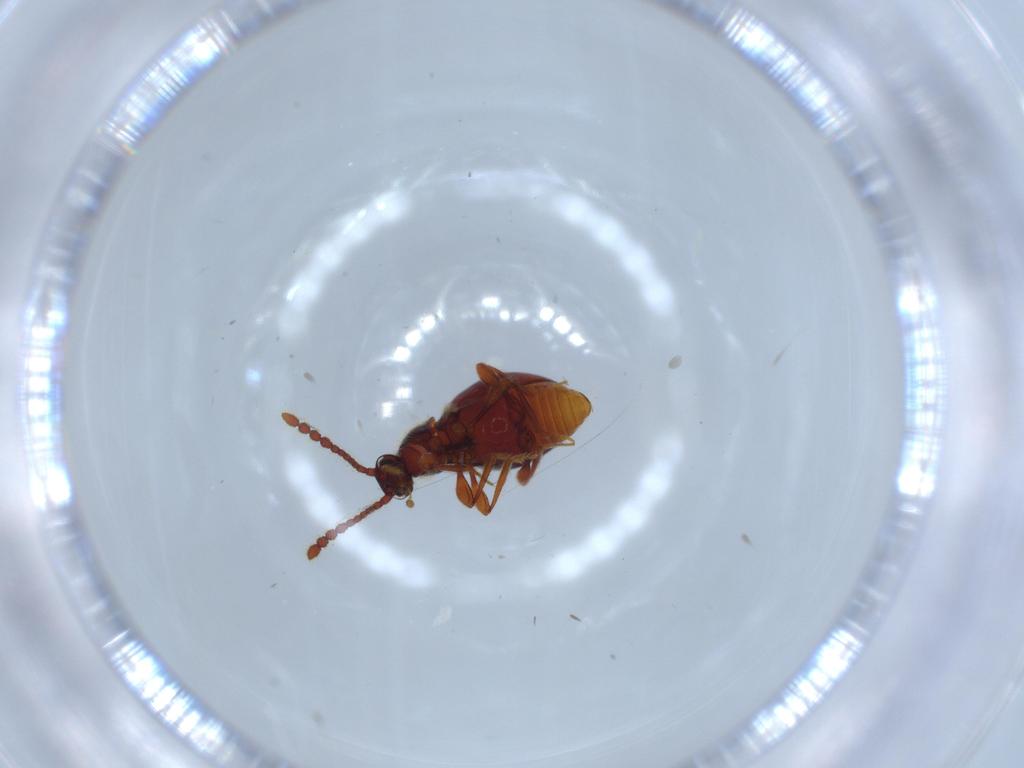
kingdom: Animalia
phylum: Arthropoda
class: Insecta
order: Coleoptera
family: Staphylinidae
